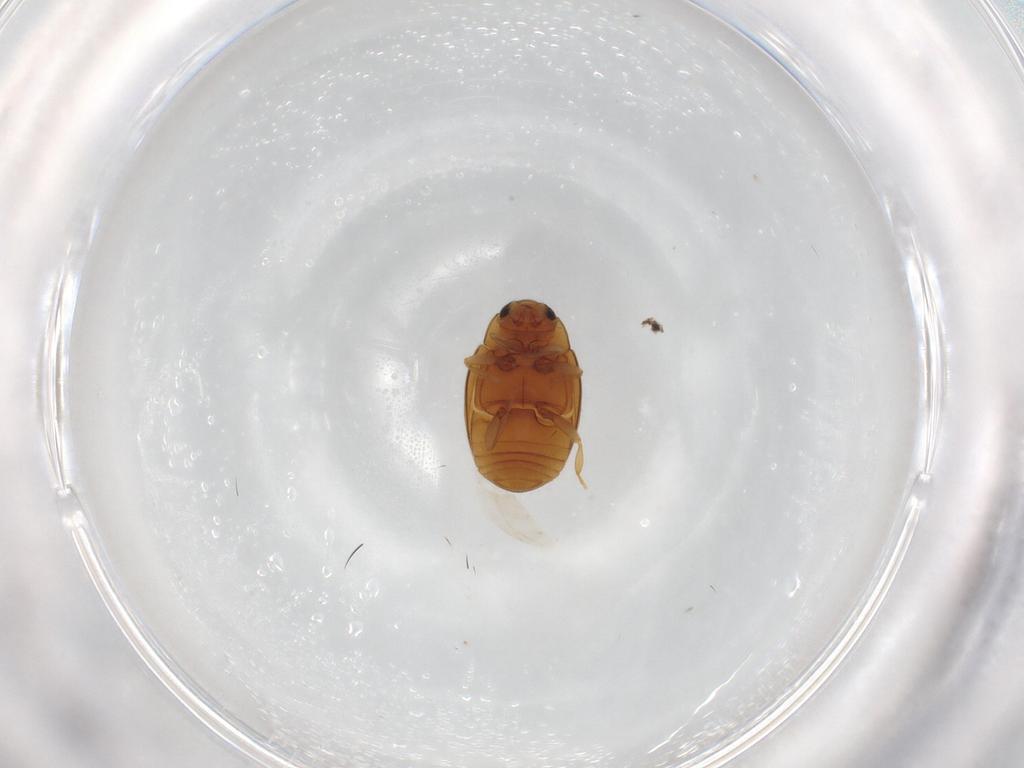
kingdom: Animalia
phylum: Arthropoda
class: Insecta
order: Coleoptera
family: Coccinellidae
